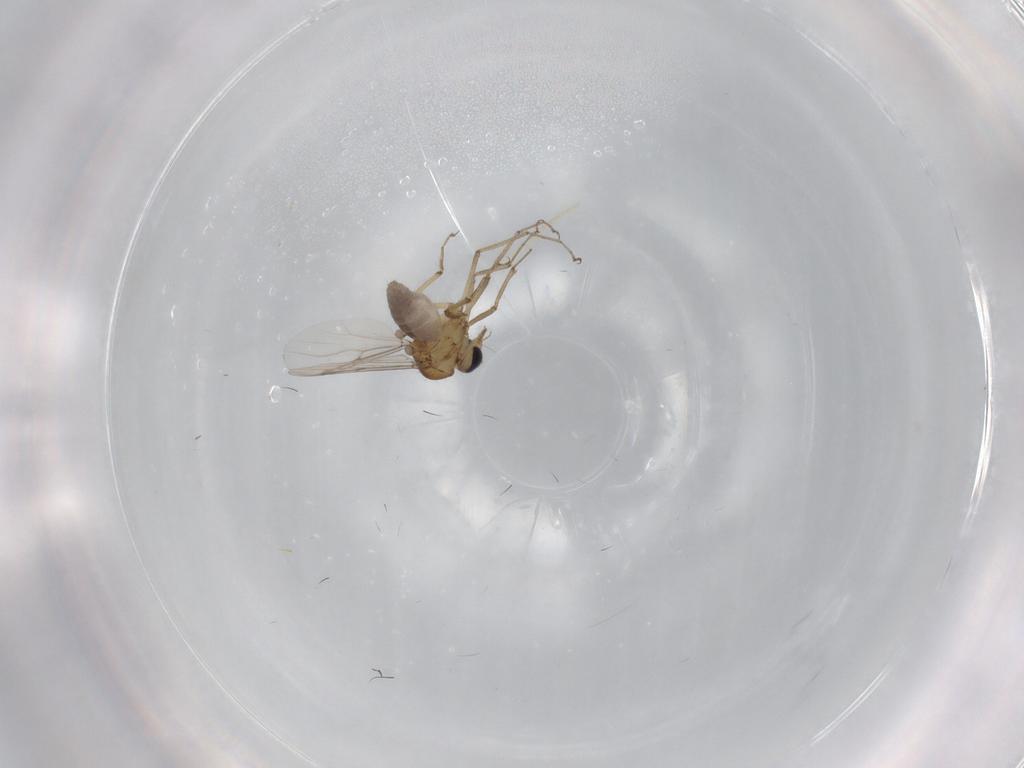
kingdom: Animalia
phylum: Arthropoda
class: Insecta
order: Diptera
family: Ceratopogonidae
